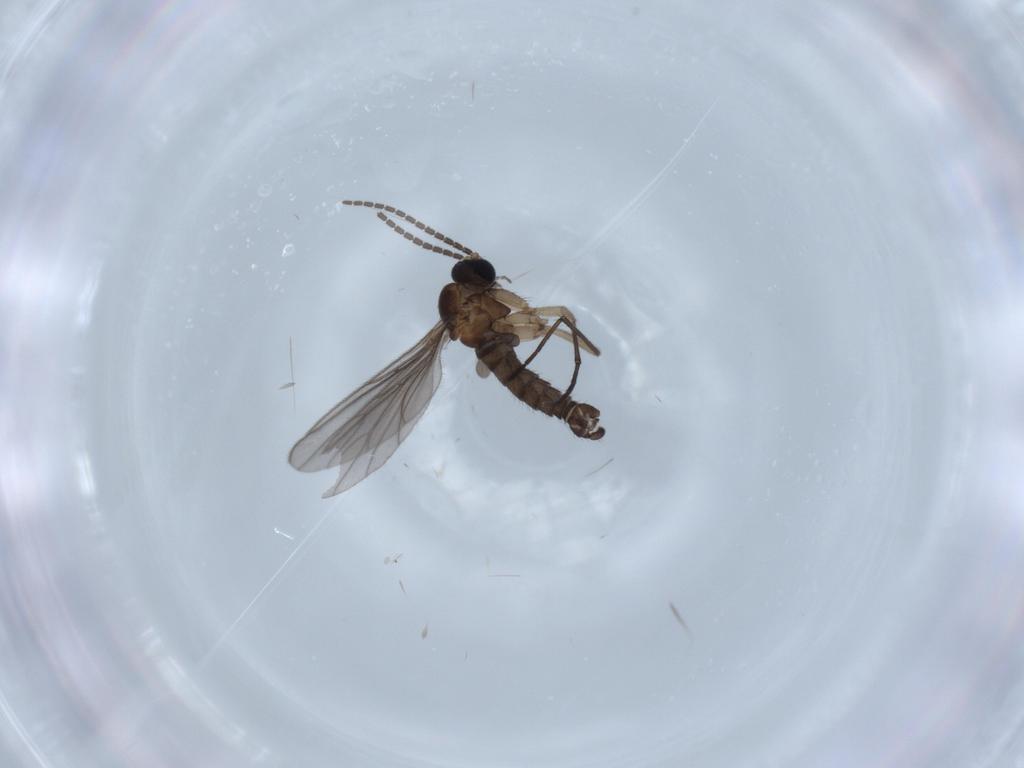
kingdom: Animalia
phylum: Arthropoda
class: Insecta
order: Diptera
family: Sciaridae
